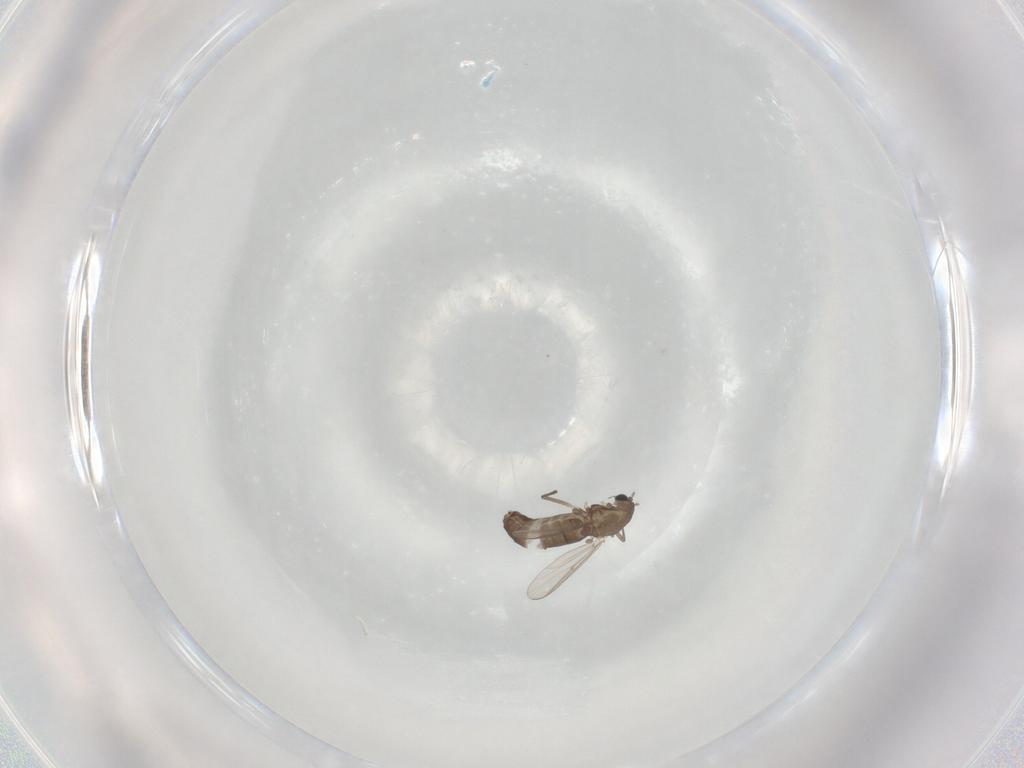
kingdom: Animalia
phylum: Arthropoda
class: Insecta
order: Diptera
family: Chironomidae
